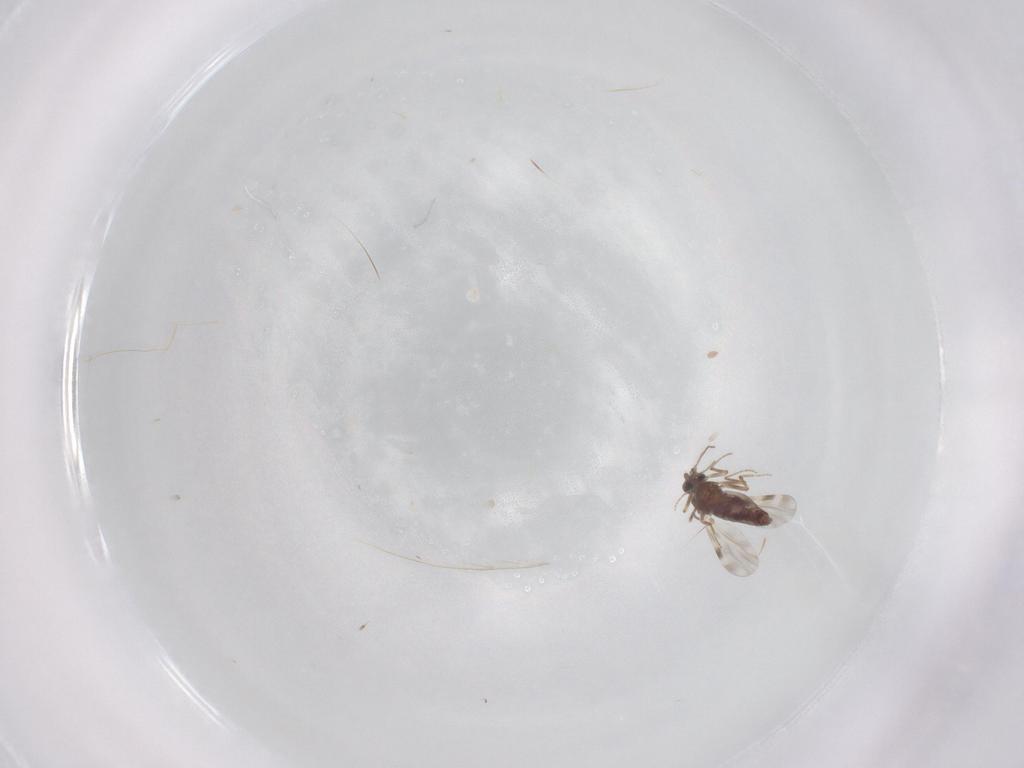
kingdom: Animalia
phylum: Arthropoda
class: Insecta
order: Diptera
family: Ceratopogonidae
